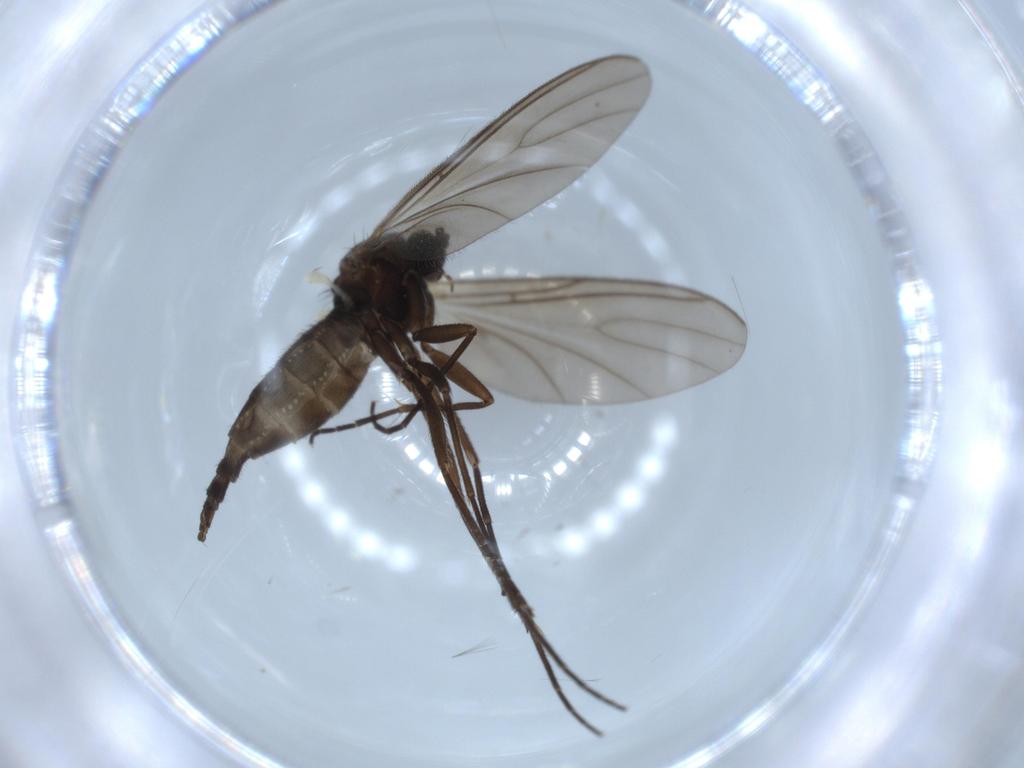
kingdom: Animalia
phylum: Arthropoda
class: Insecta
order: Diptera
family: Sciaridae
